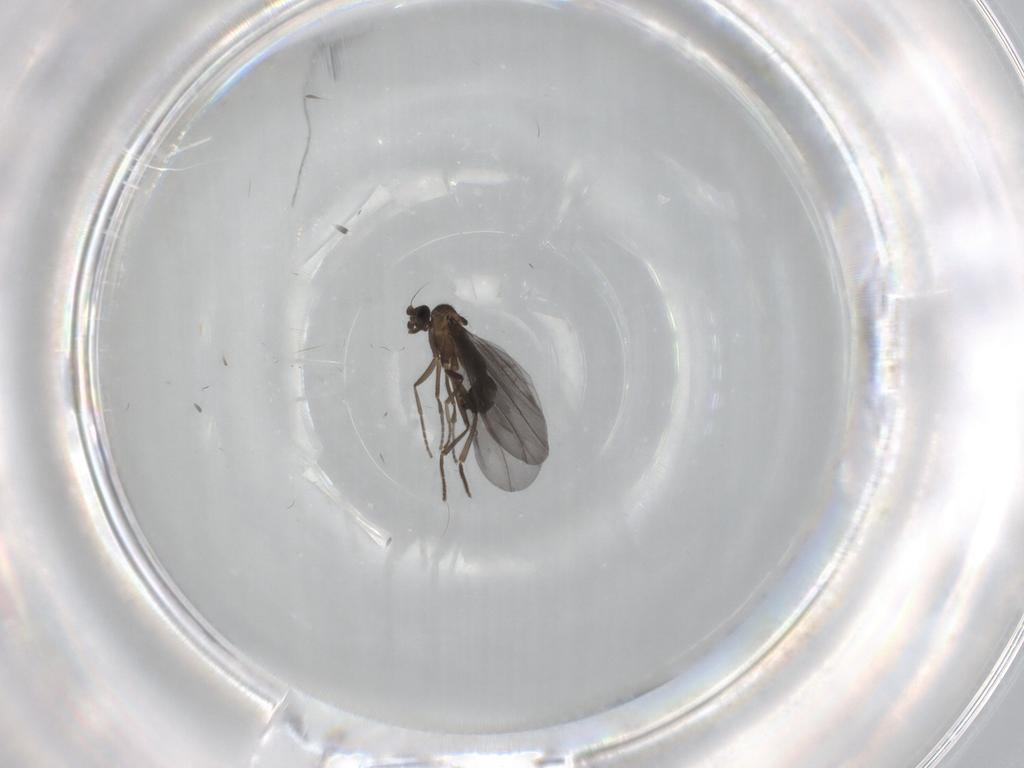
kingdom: Animalia
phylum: Arthropoda
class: Insecta
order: Diptera
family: Phoridae
